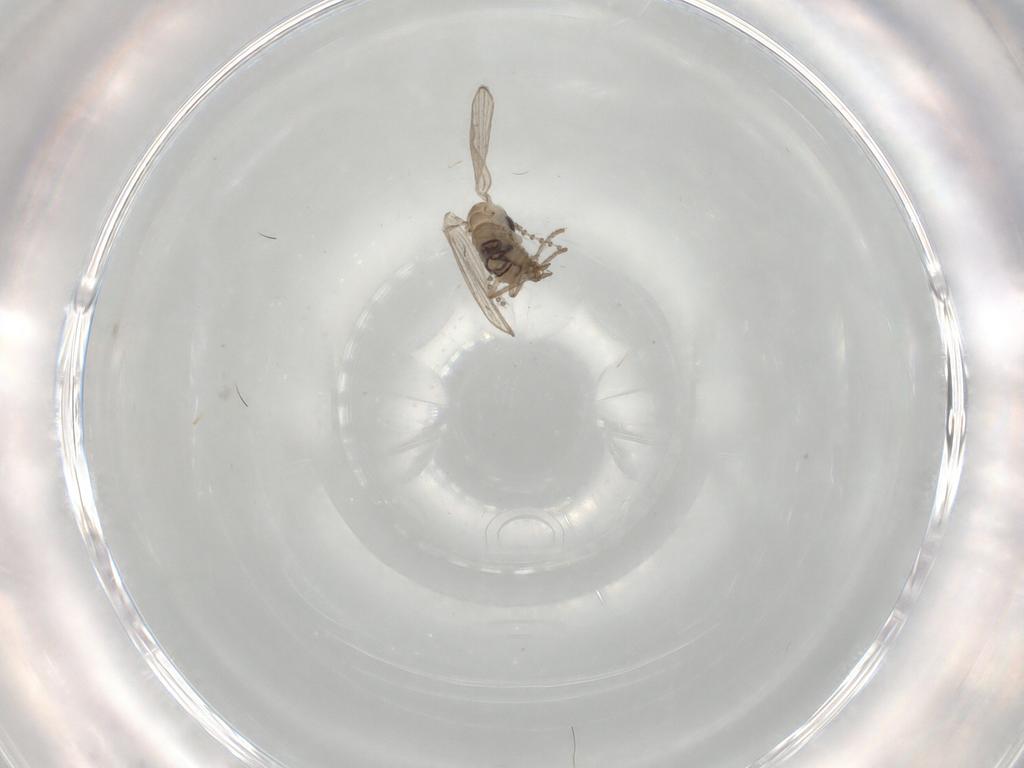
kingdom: Animalia
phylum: Arthropoda
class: Insecta
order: Diptera
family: Psychodidae
